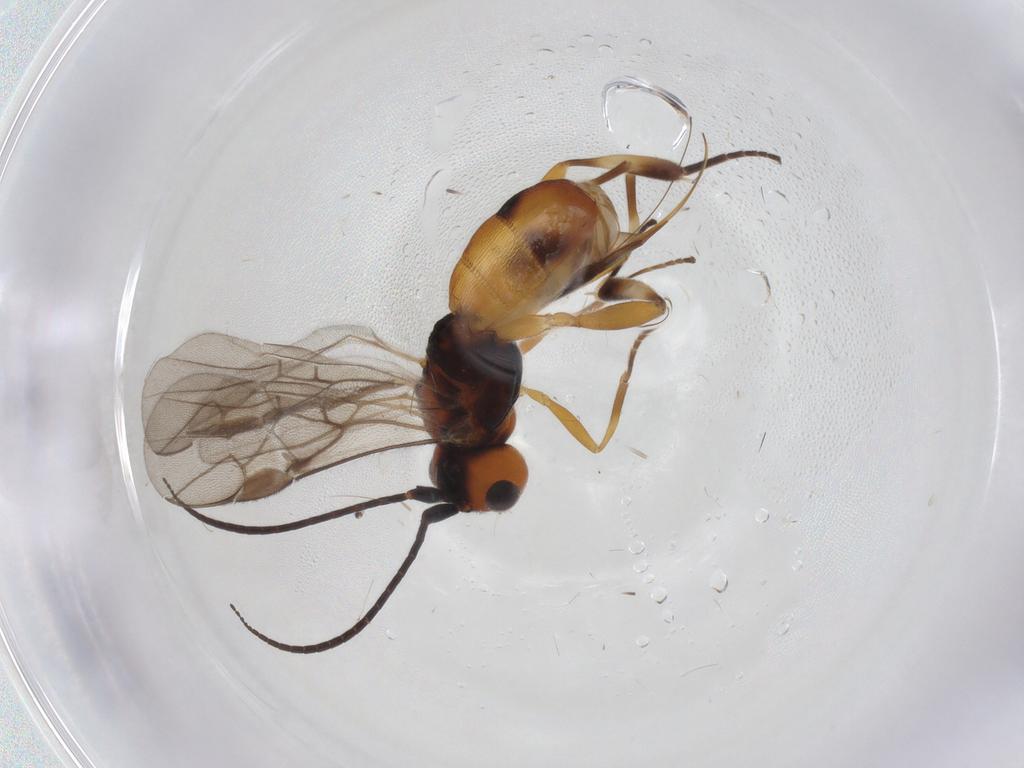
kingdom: Animalia
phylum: Arthropoda
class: Insecta
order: Hymenoptera
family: Braconidae
